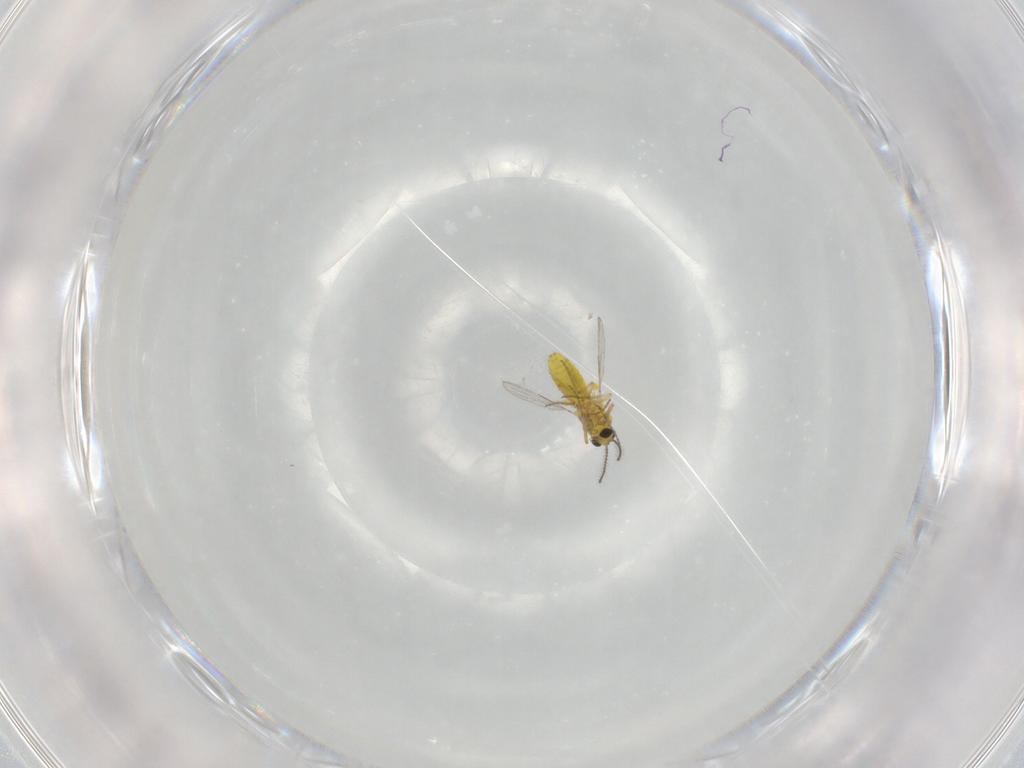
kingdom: Animalia
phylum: Arthropoda
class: Insecta
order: Diptera
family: Ceratopogonidae
